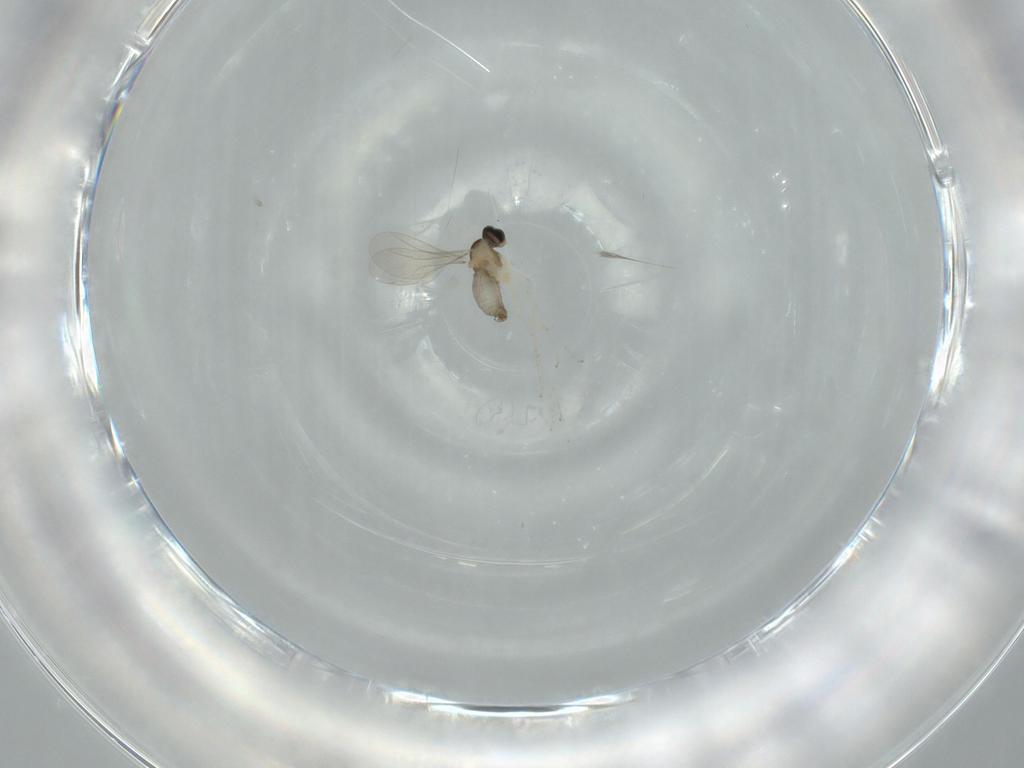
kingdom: Animalia
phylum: Arthropoda
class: Insecta
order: Diptera
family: Cecidomyiidae
